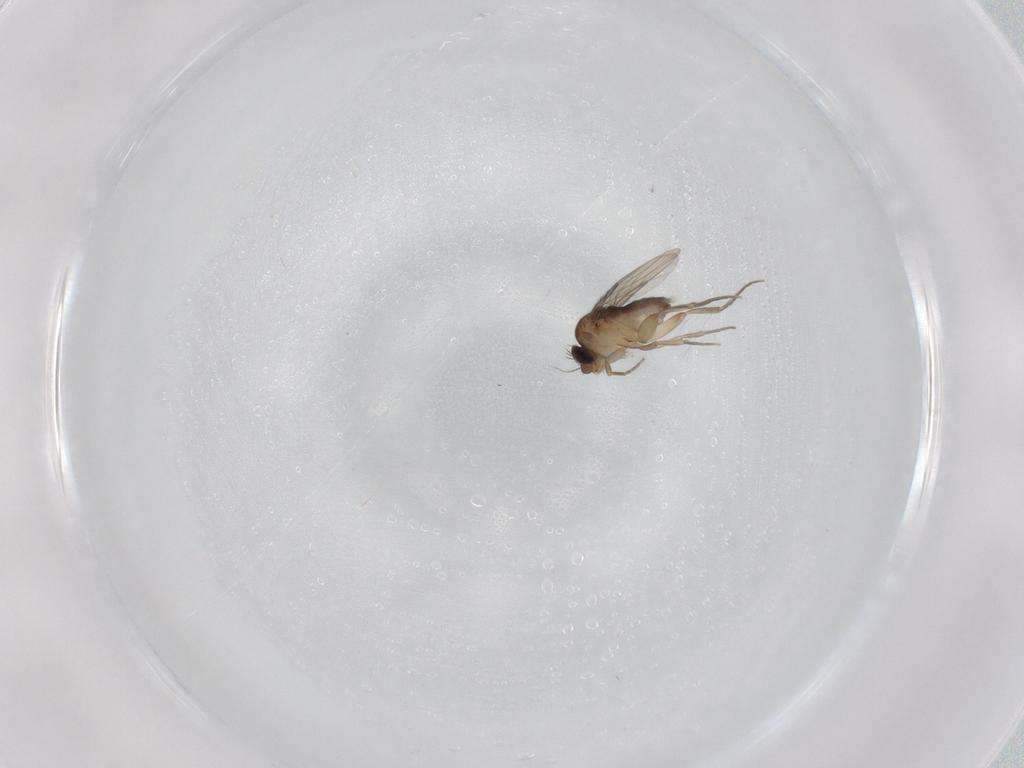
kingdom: Animalia
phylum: Arthropoda
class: Insecta
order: Diptera
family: Phoridae
